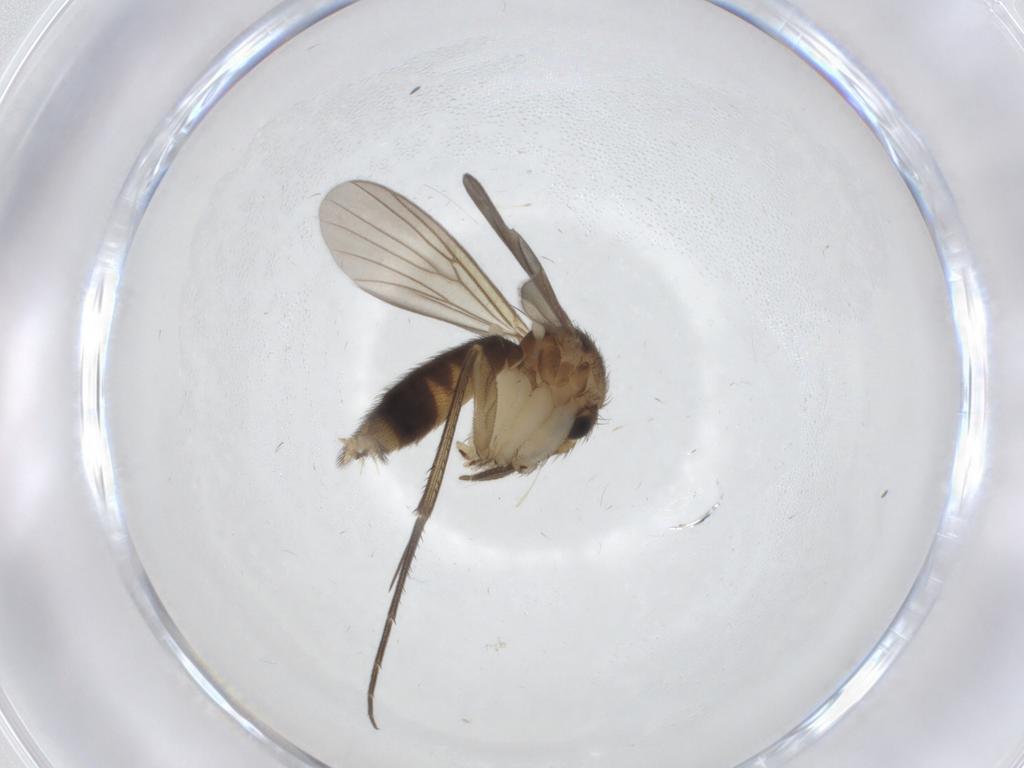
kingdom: Animalia
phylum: Arthropoda
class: Insecta
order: Diptera
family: Mycetophilidae
